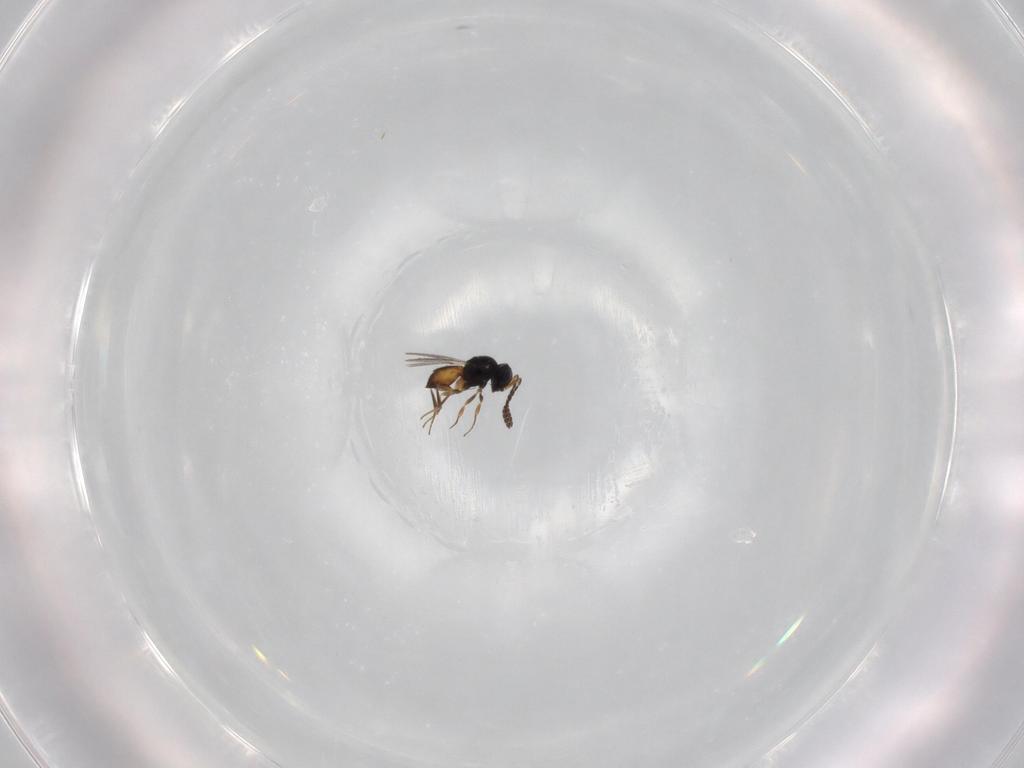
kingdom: Animalia
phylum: Arthropoda
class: Insecta
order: Hymenoptera
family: Scelionidae
